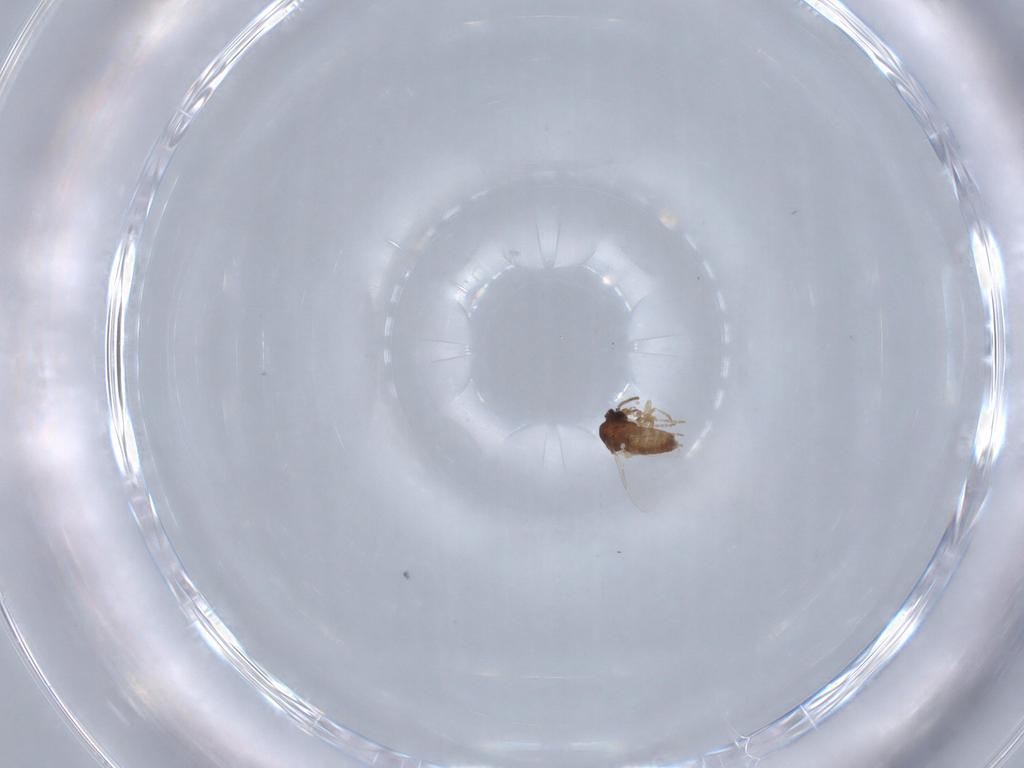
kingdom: Animalia
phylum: Arthropoda
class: Insecta
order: Diptera
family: Ceratopogonidae
